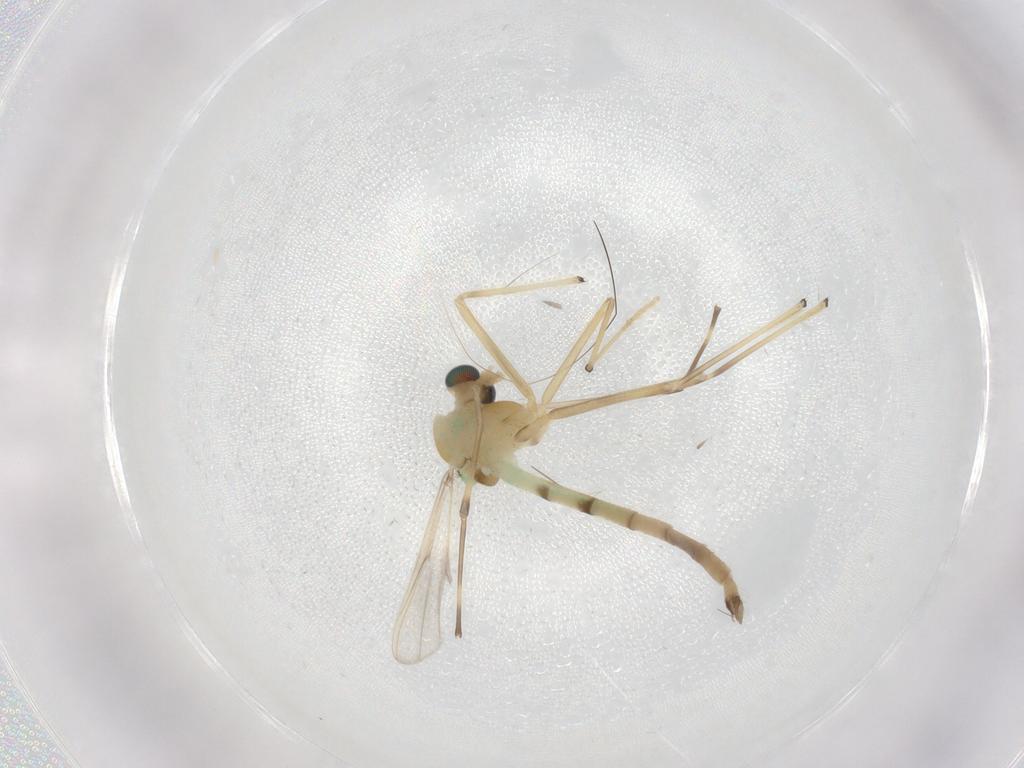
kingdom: Animalia
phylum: Arthropoda
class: Insecta
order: Diptera
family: Chironomidae
